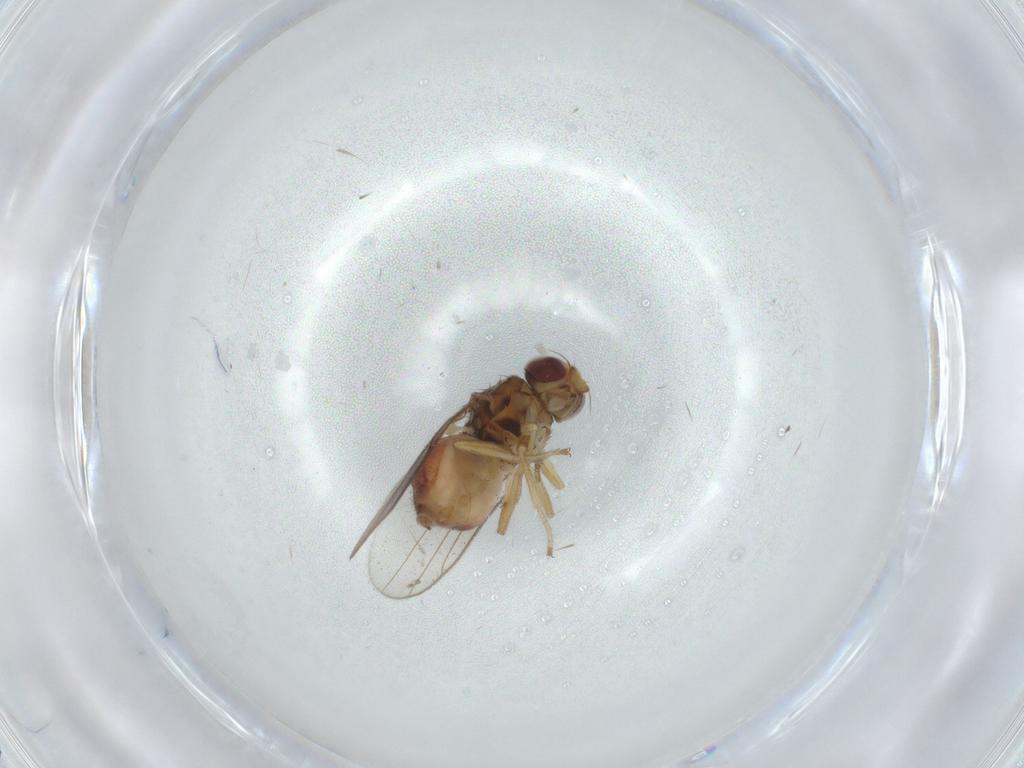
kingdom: Animalia
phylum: Arthropoda
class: Insecta
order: Diptera
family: Chloropidae
